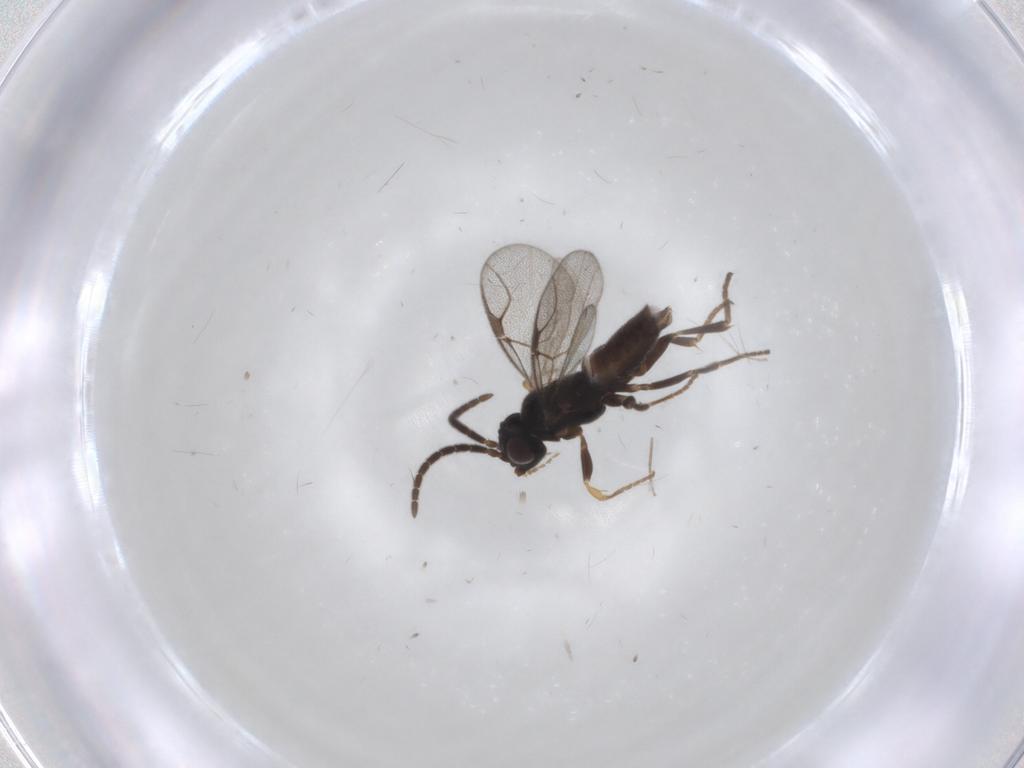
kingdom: Animalia
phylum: Arthropoda
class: Insecta
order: Hymenoptera
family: Dryinidae
